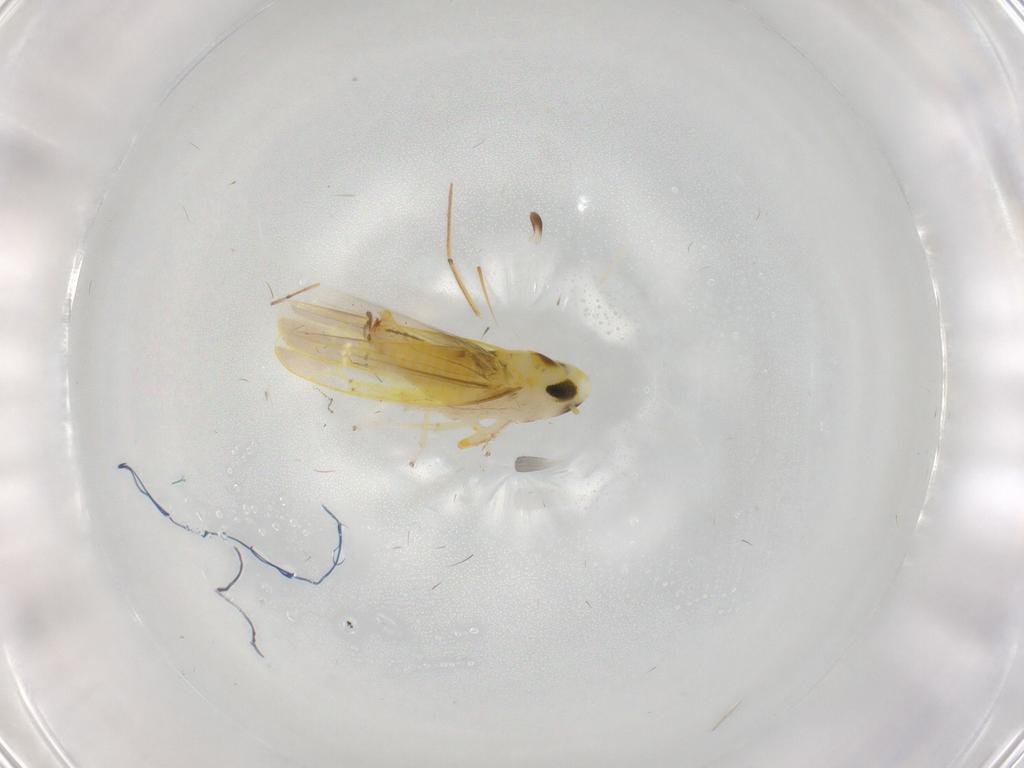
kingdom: Animalia
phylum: Arthropoda
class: Insecta
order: Hemiptera
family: Cicadellidae
